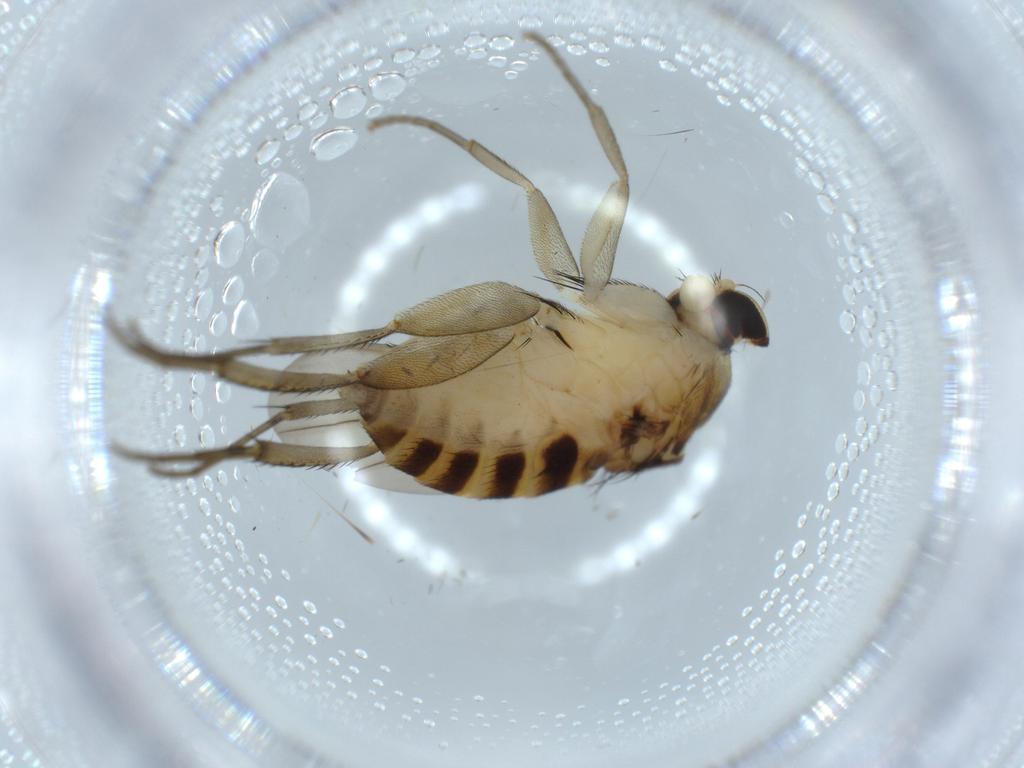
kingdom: Animalia
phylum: Arthropoda
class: Insecta
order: Diptera
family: Phoridae
